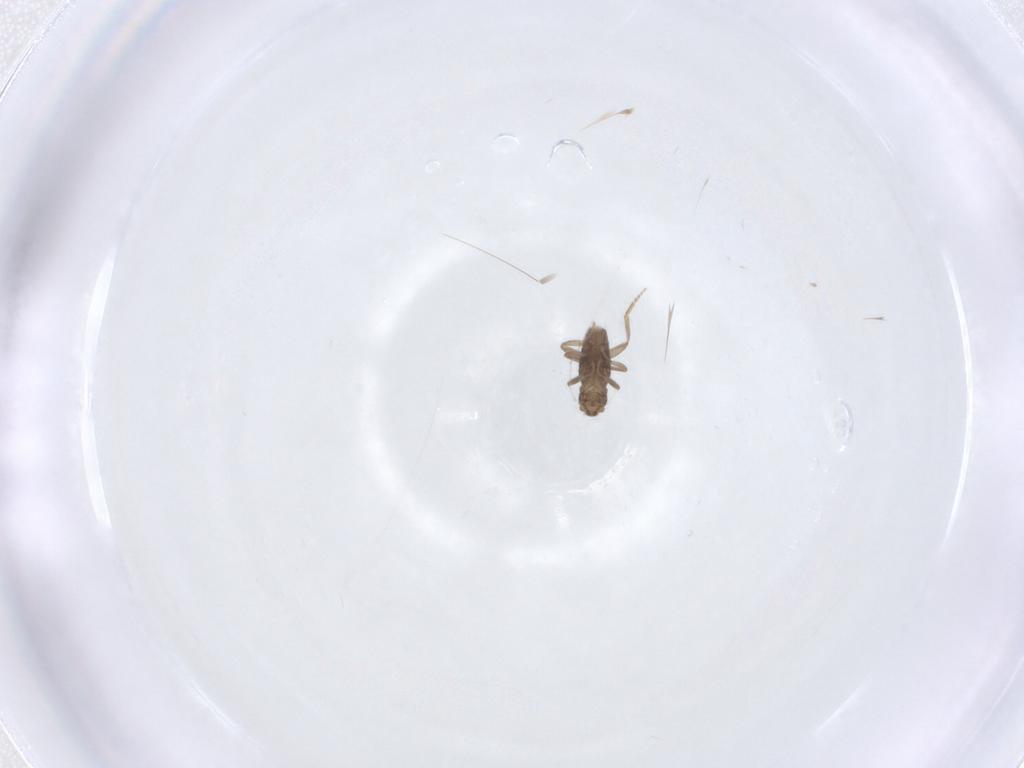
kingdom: Animalia
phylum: Arthropoda
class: Insecta
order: Diptera
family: Cecidomyiidae
